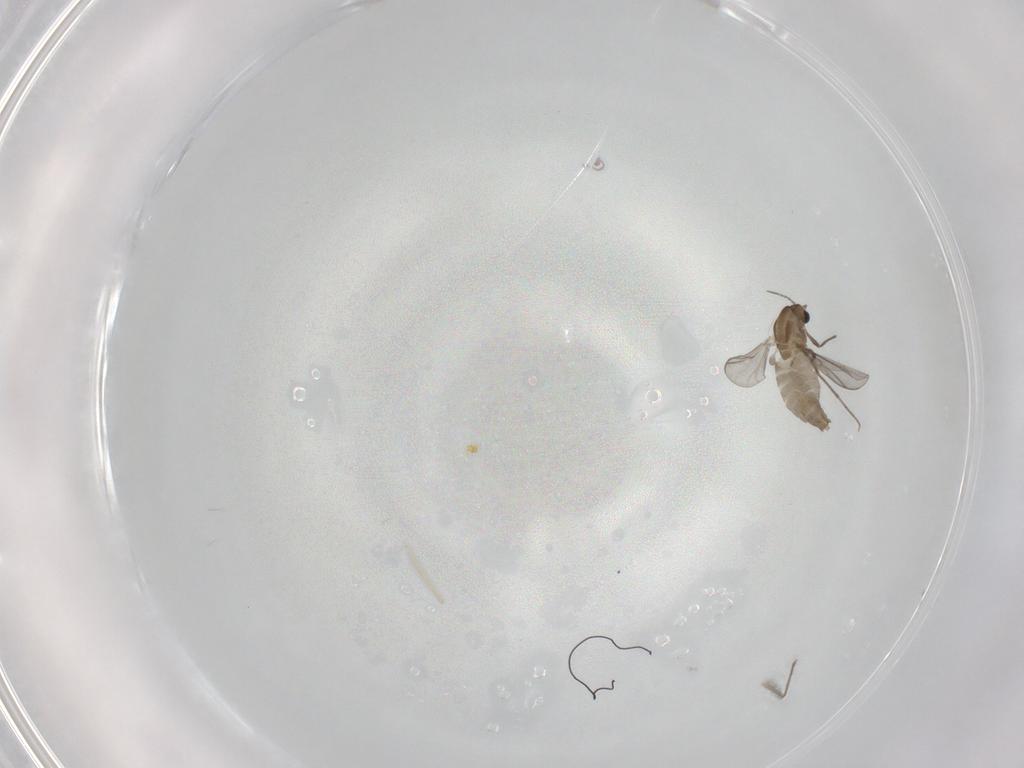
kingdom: Animalia
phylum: Arthropoda
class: Insecta
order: Diptera
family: Chironomidae
